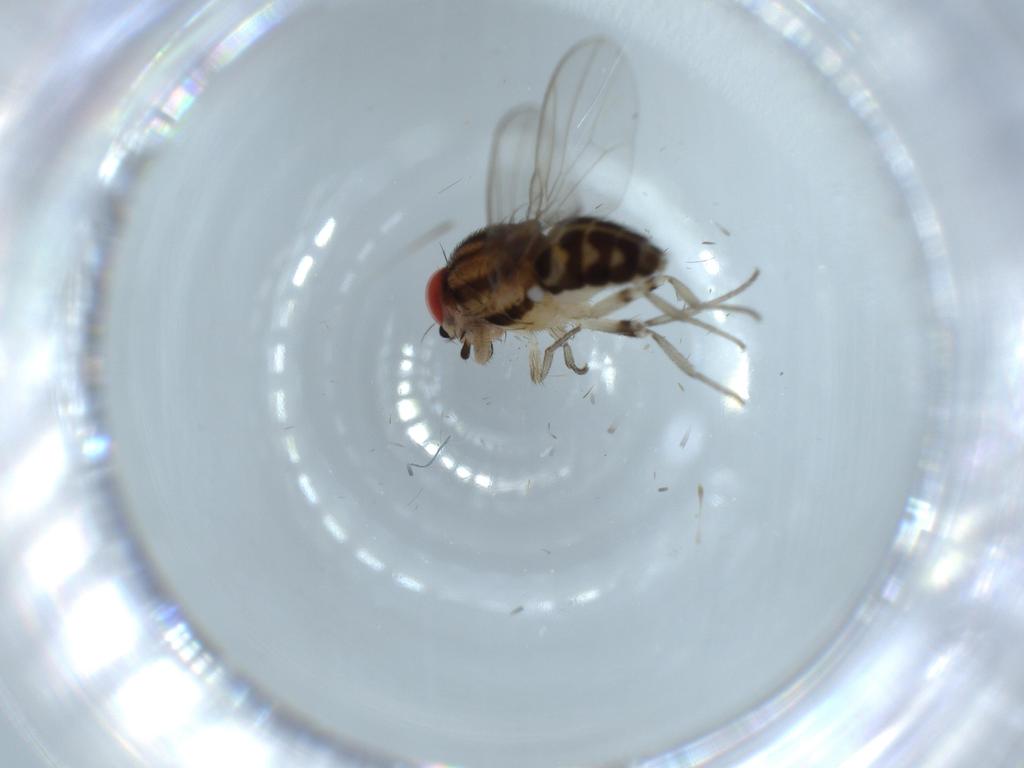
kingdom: Animalia
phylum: Arthropoda
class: Insecta
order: Diptera
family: Drosophilidae
